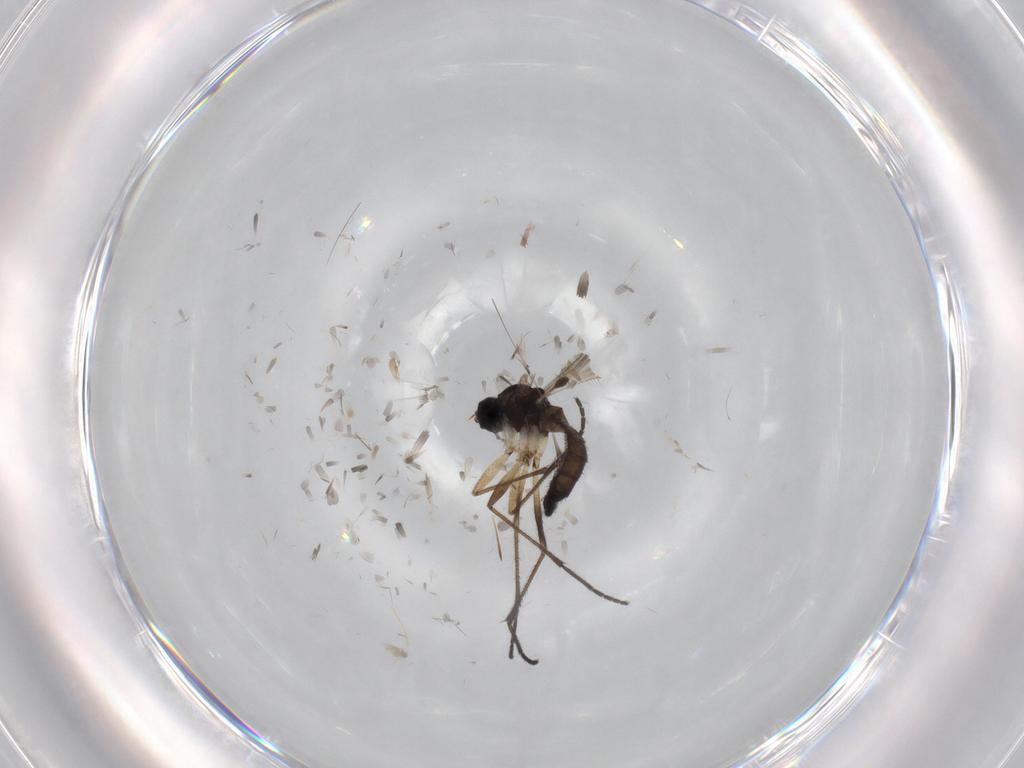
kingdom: Animalia
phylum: Arthropoda
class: Insecta
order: Diptera
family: Sciaridae
